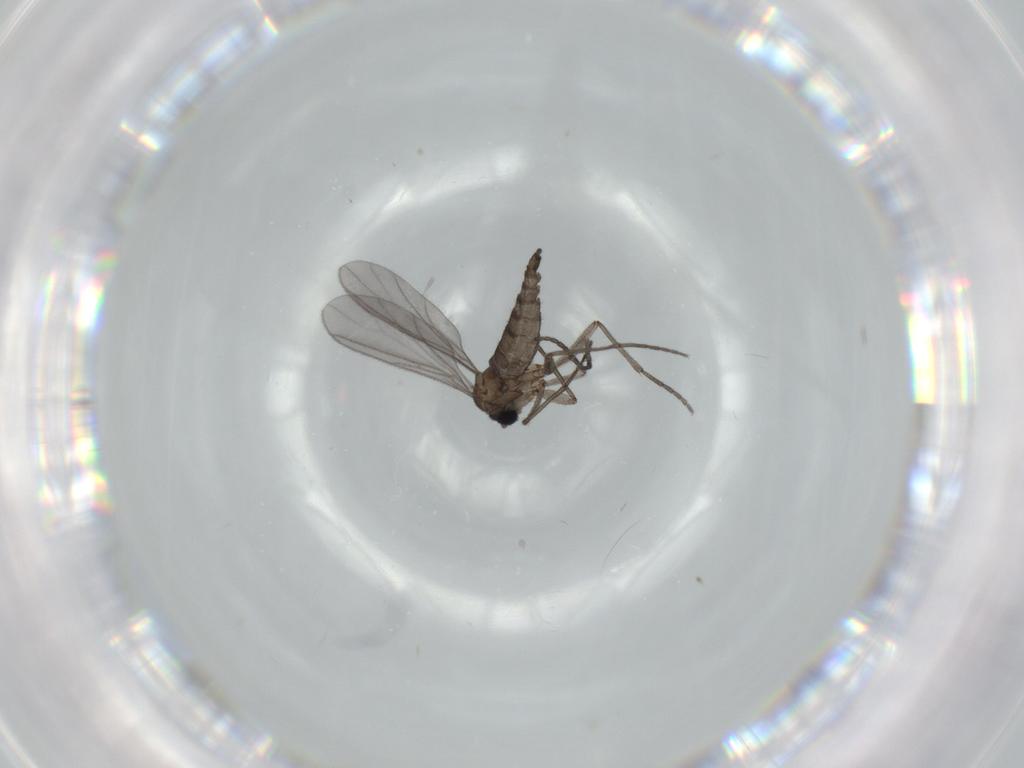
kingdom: Animalia
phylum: Arthropoda
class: Insecta
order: Diptera
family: Sciaridae
